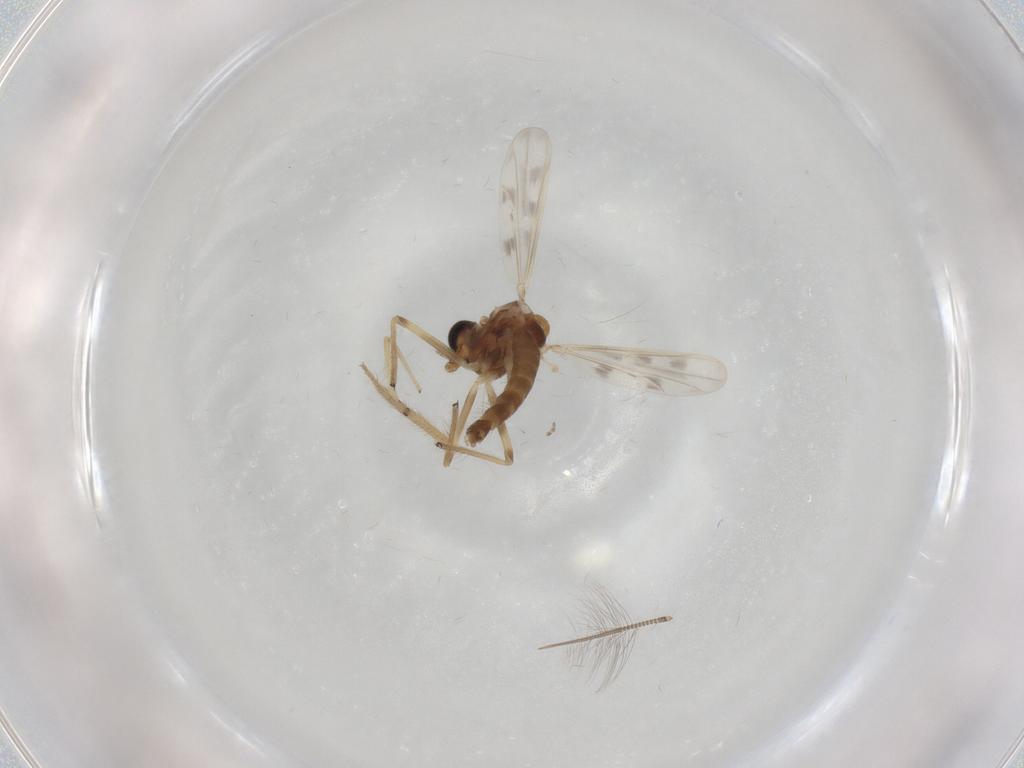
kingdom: Animalia
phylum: Arthropoda
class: Insecta
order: Diptera
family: Chironomidae
